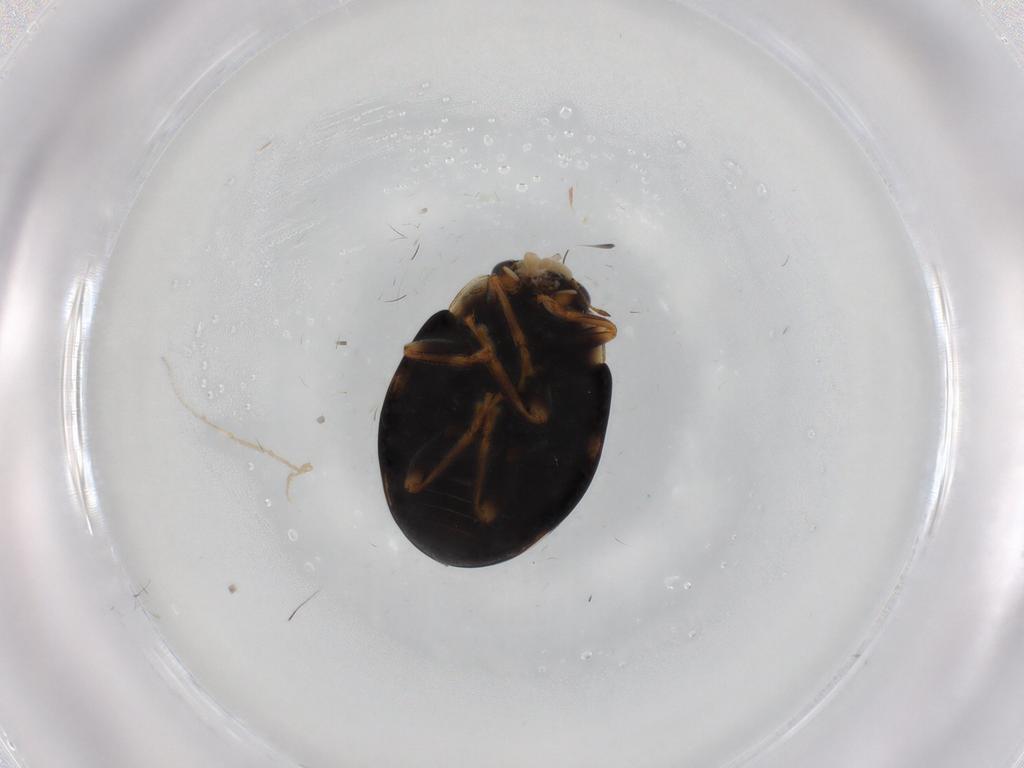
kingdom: Animalia
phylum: Arthropoda
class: Insecta
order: Coleoptera
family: Coccinellidae
